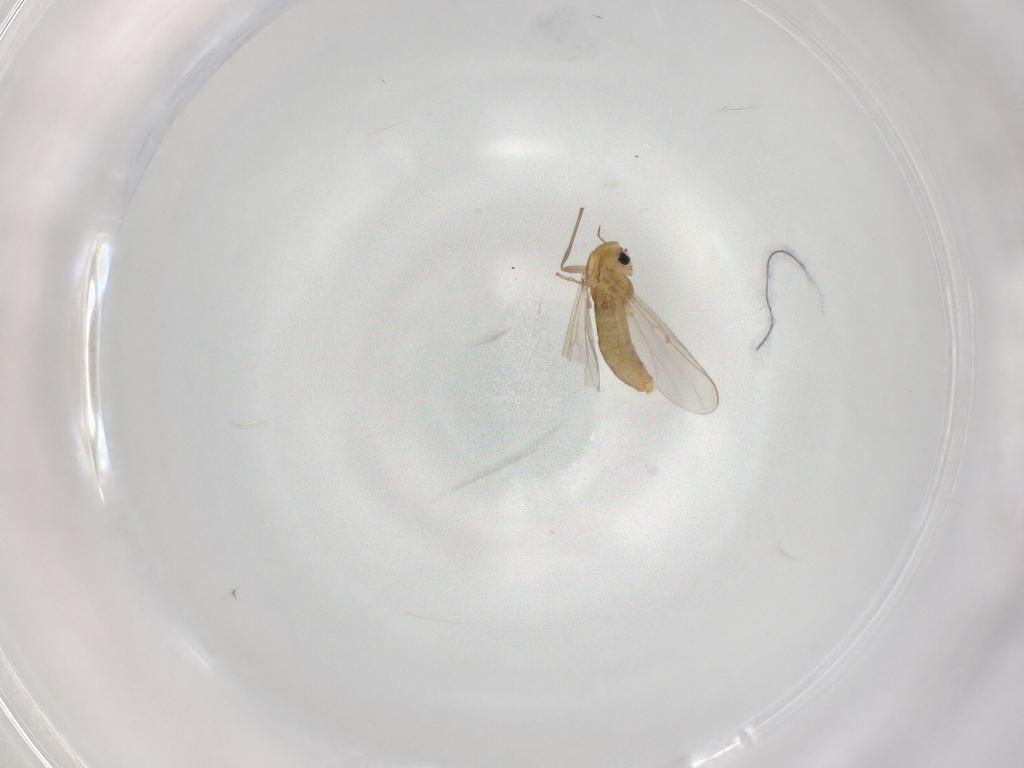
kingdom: Animalia
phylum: Arthropoda
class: Insecta
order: Diptera
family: Chironomidae
